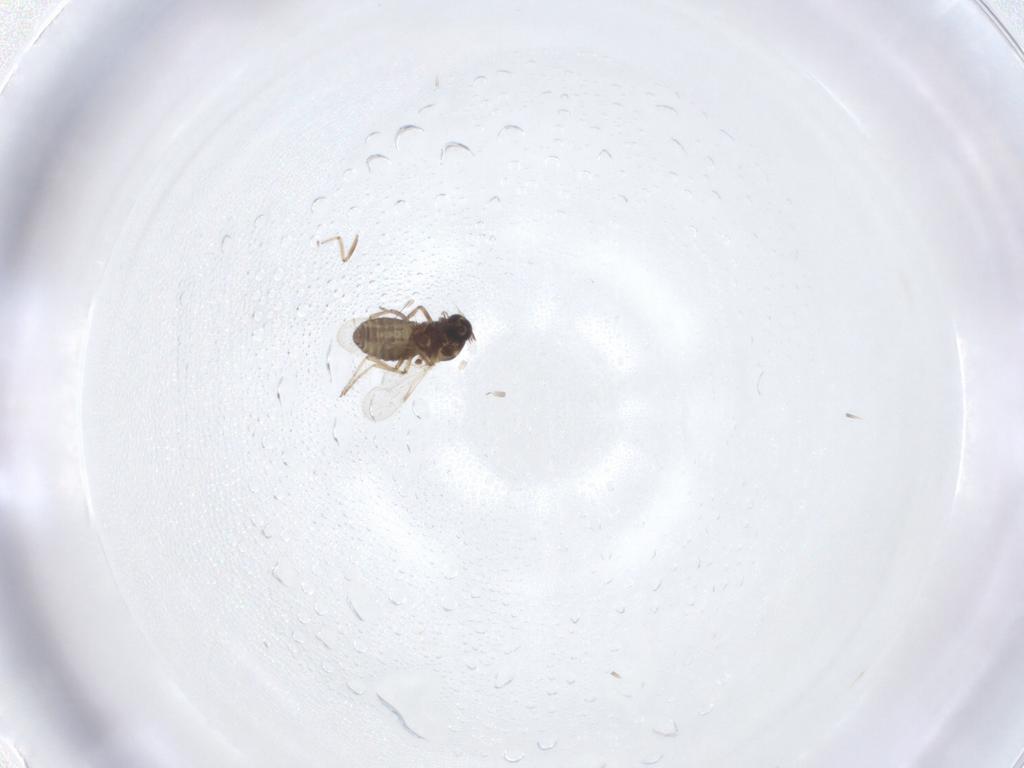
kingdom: Animalia
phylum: Arthropoda
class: Insecta
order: Diptera
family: Ceratopogonidae
